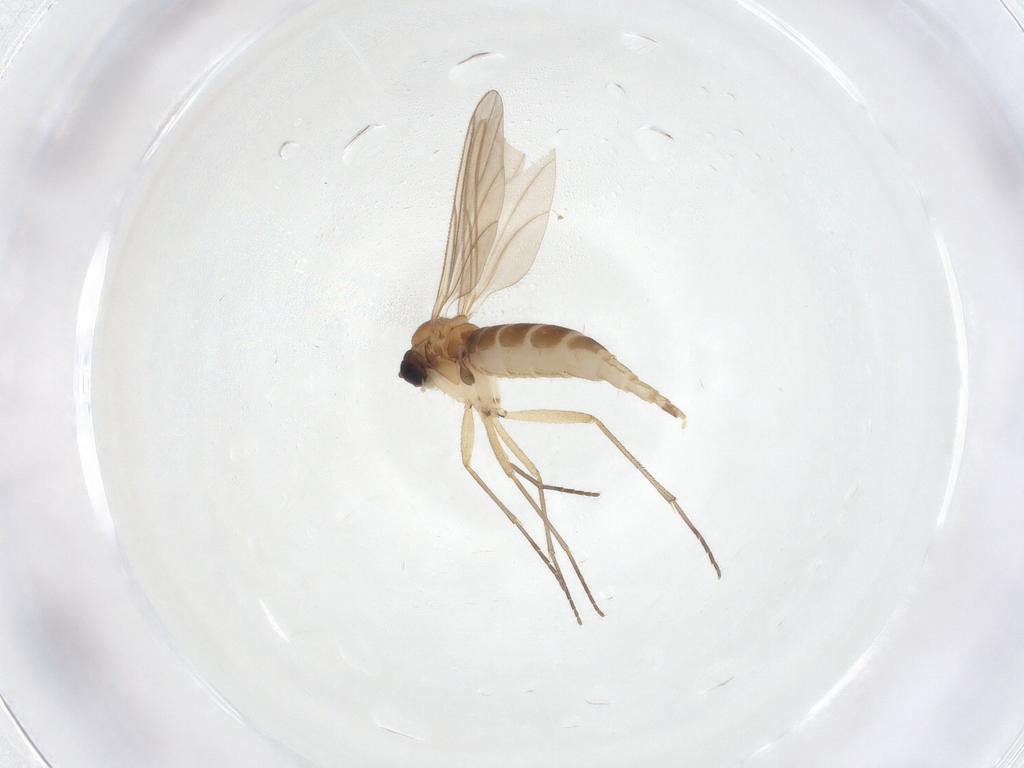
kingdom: Animalia
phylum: Arthropoda
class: Insecta
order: Diptera
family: Sciaridae
